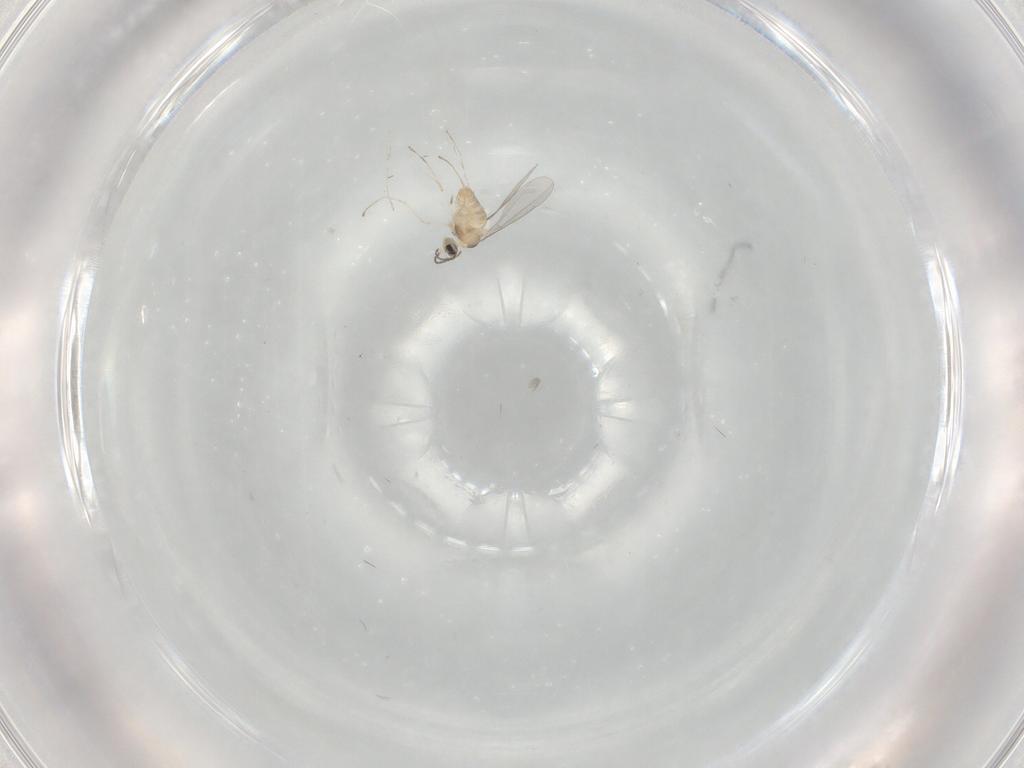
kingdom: Animalia
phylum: Arthropoda
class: Insecta
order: Diptera
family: Cecidomyiidae
